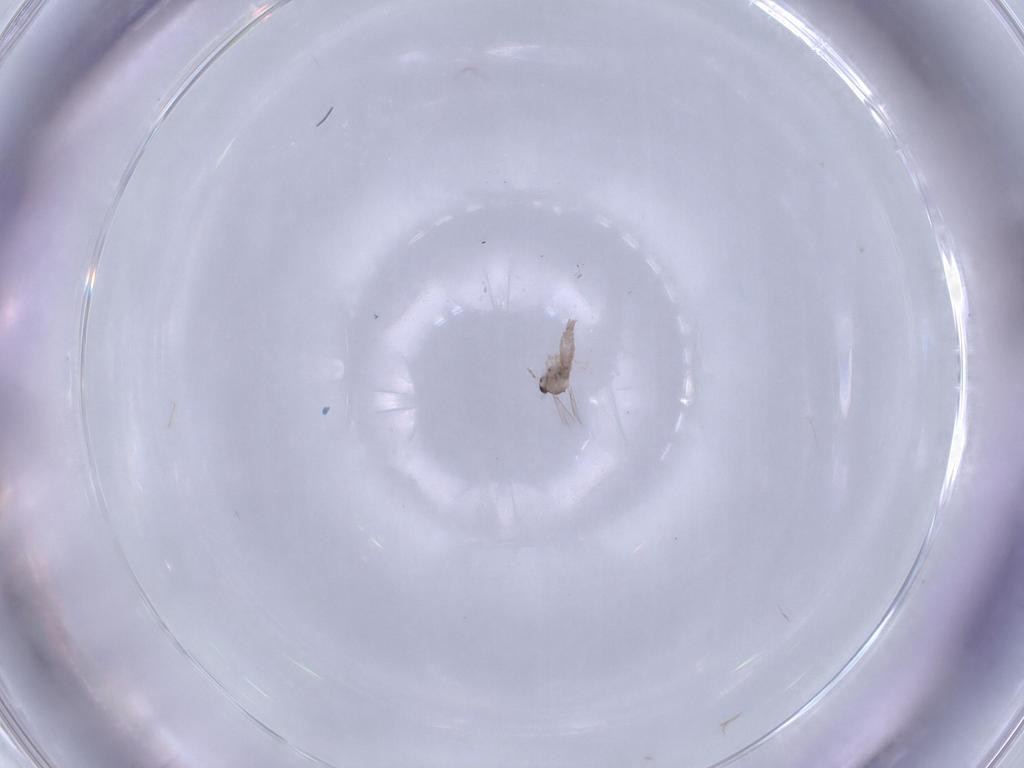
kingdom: Animalia
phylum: Arthropoda
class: Insecta
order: Diptera
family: Cecidomyiidae
